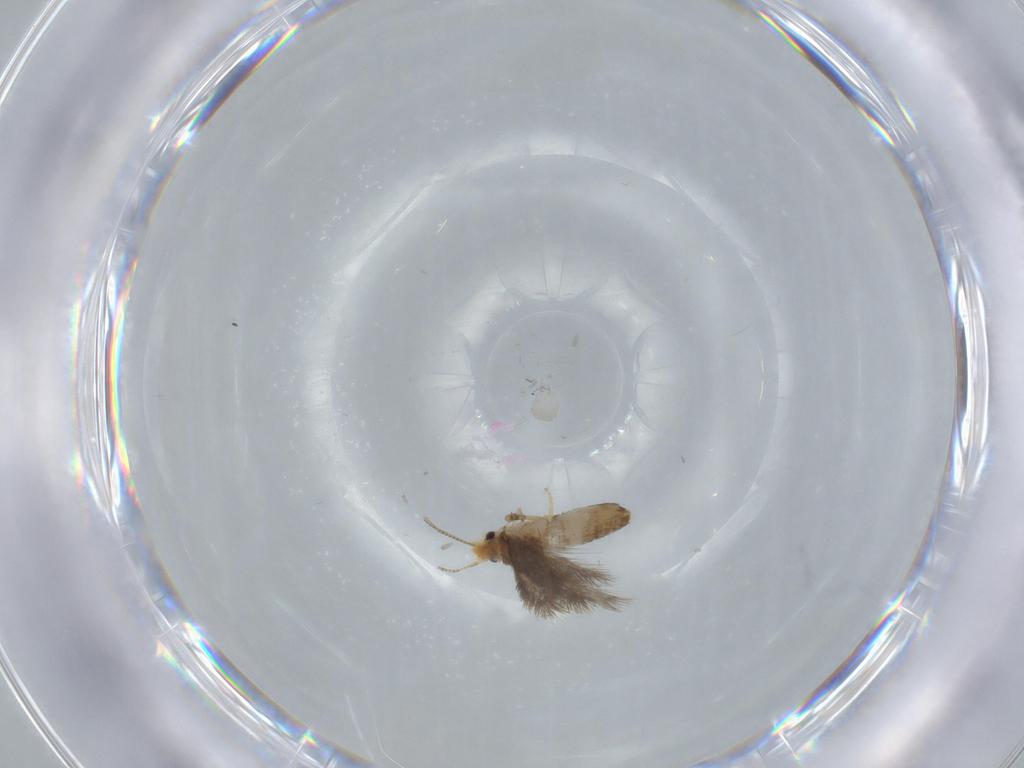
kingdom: Animalia
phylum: Arthropoda
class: Insecta
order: Lepidoptera
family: Nepticulidae
